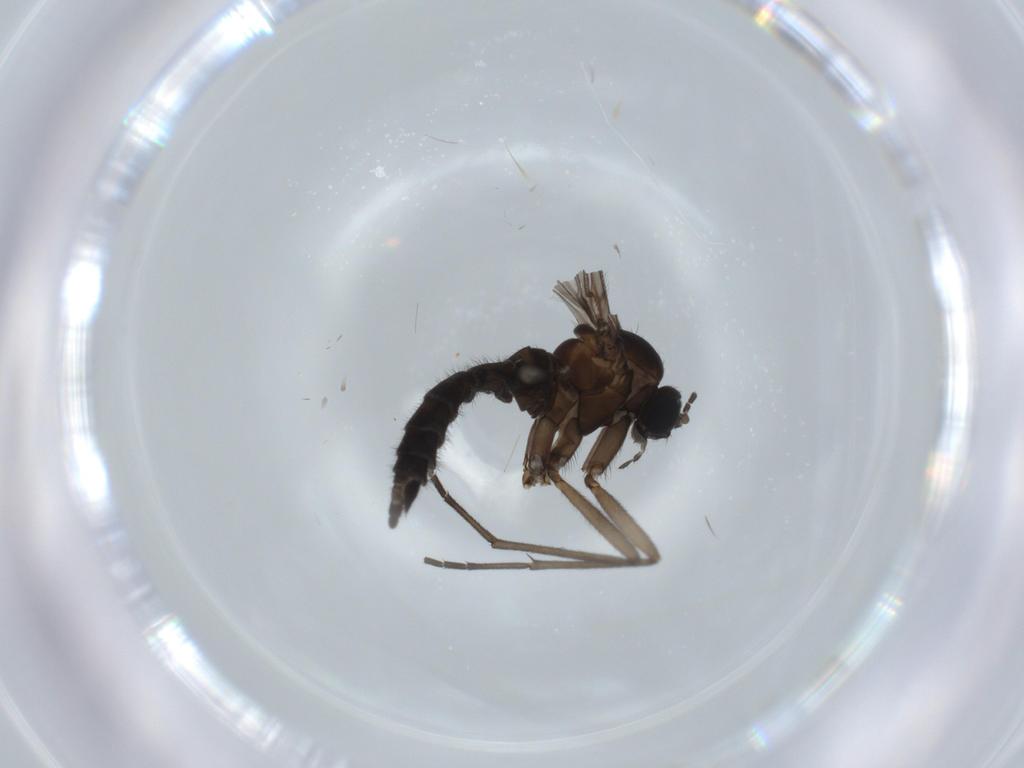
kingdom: Animalia
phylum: Arthropoda
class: Insecta
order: Diptera
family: Sciaridae
